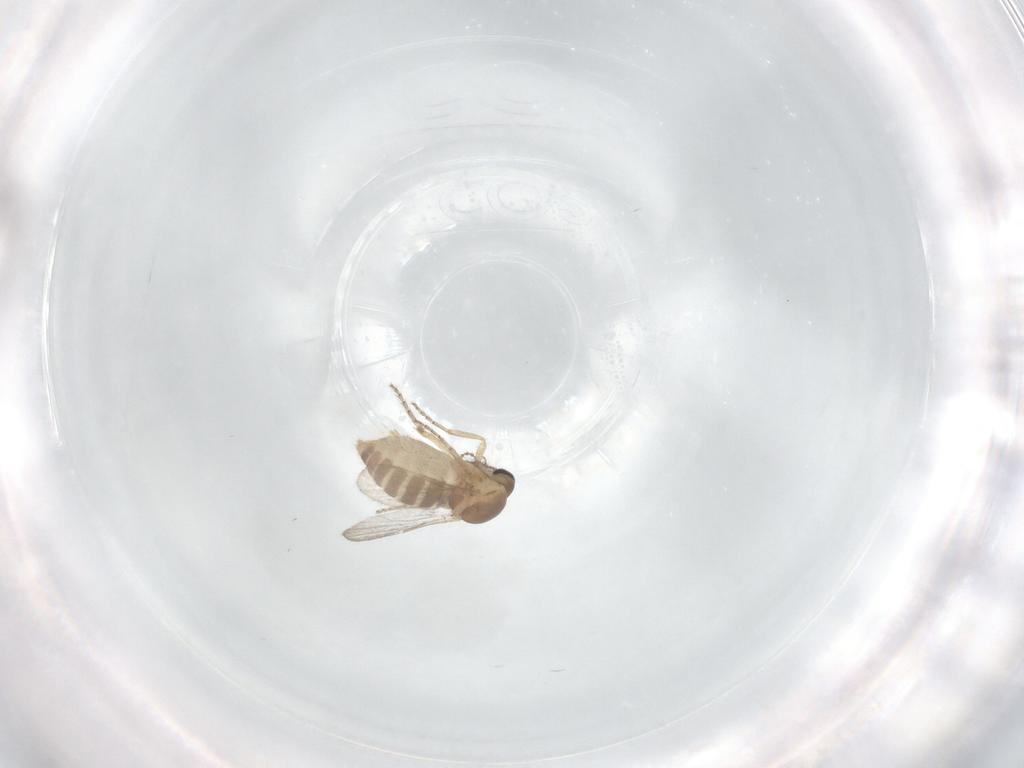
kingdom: Animalia
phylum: Arthropoda
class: Insecta
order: Diptera
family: Ceratopogonidae
